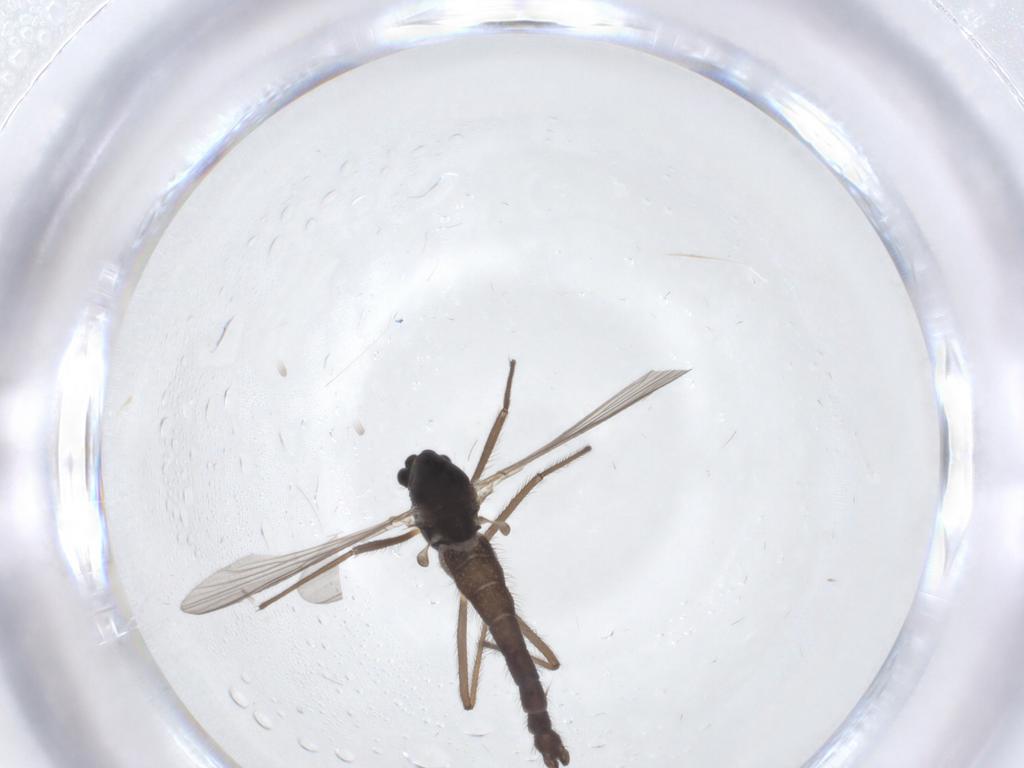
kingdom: Animalia
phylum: Arthropoda
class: Insecta
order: Diptera
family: Chironomidae
